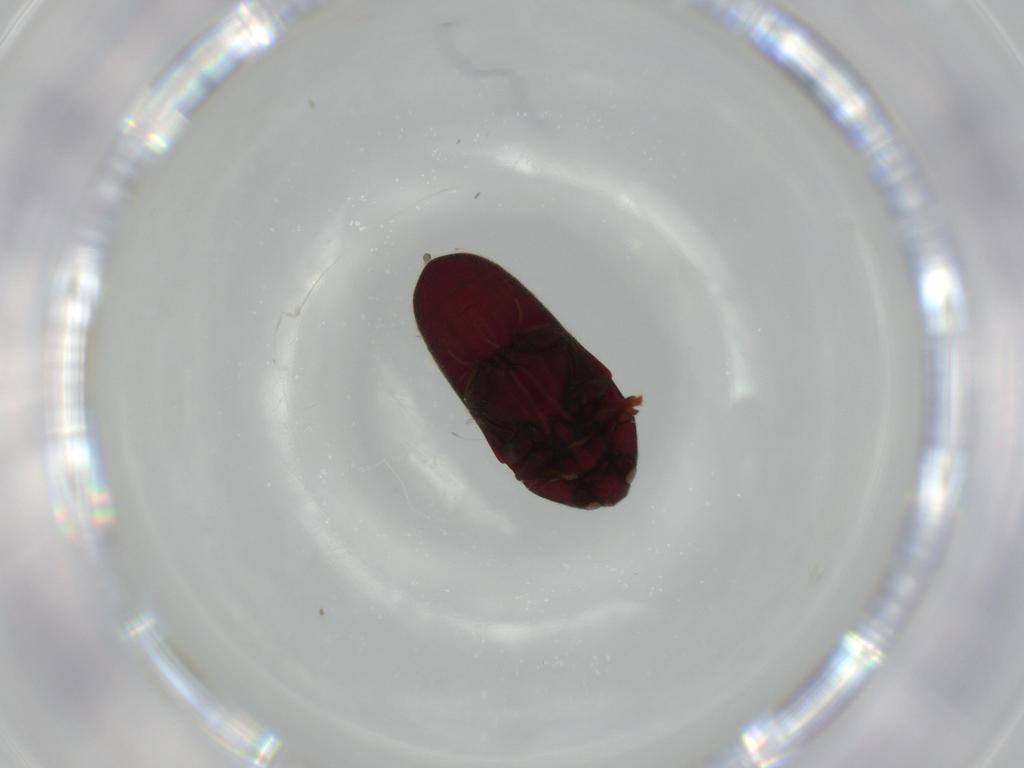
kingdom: Animalia
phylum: Arthropoda
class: Insecta
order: Coleoptera
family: Throscidae
